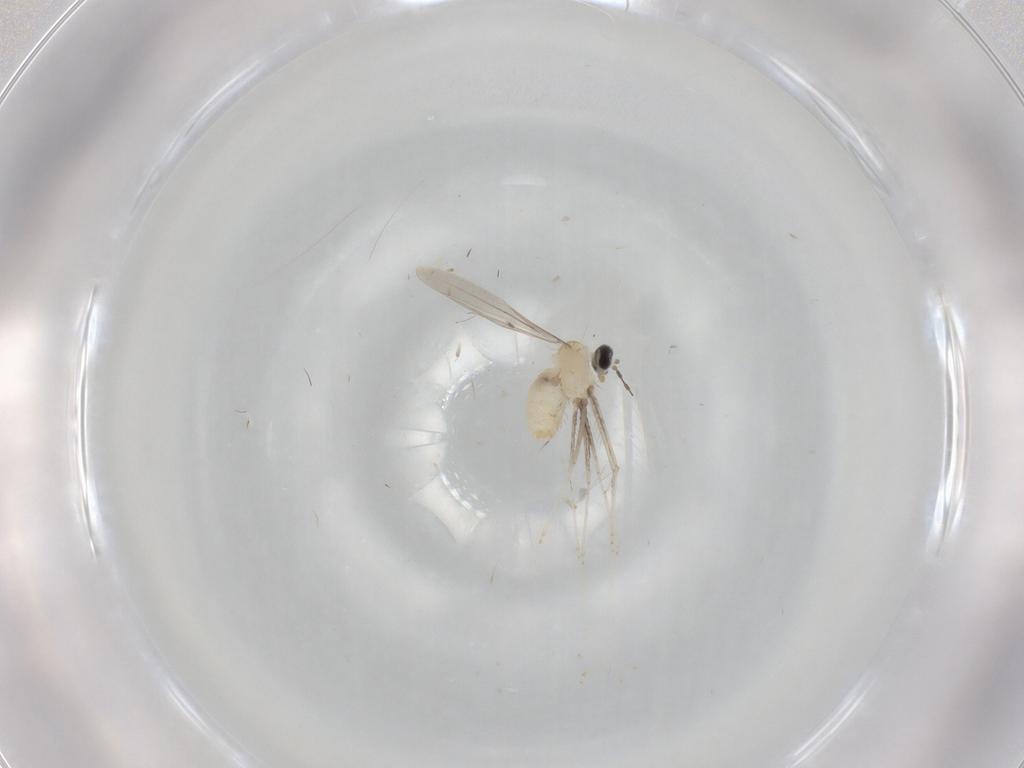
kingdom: Animalia
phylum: Arthropoda
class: Insecta
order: Diptera
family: Cecidomyiidae
